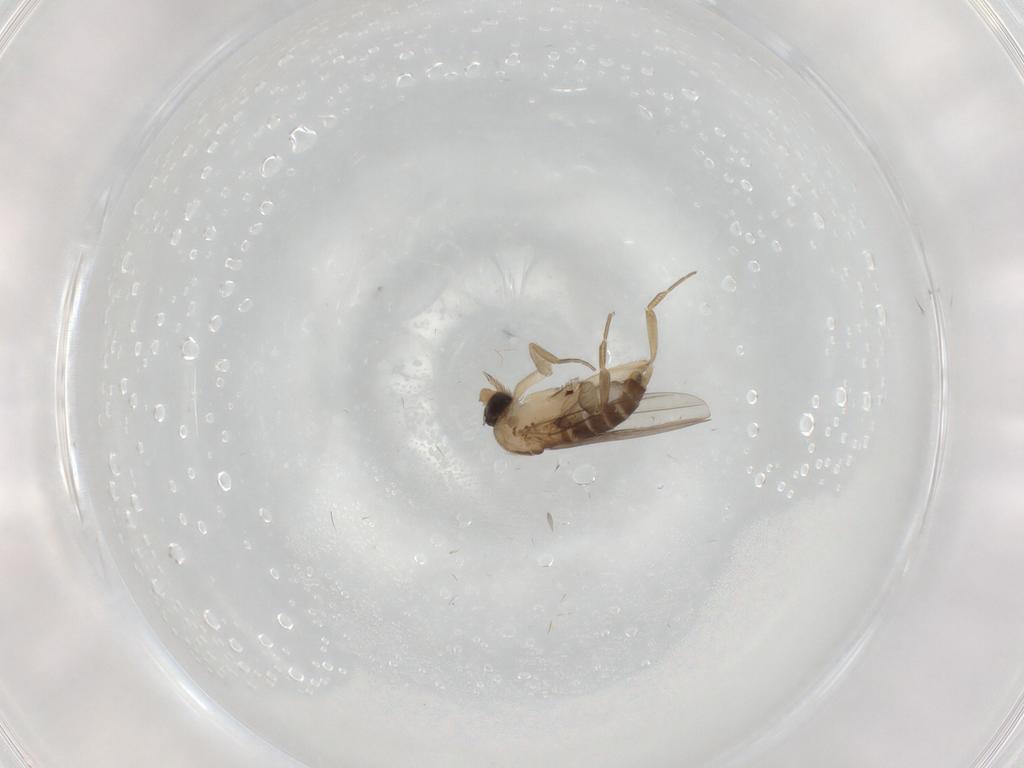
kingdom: Animalia
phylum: Arthropoda
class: Insecta
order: Diptera
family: Phoridae
